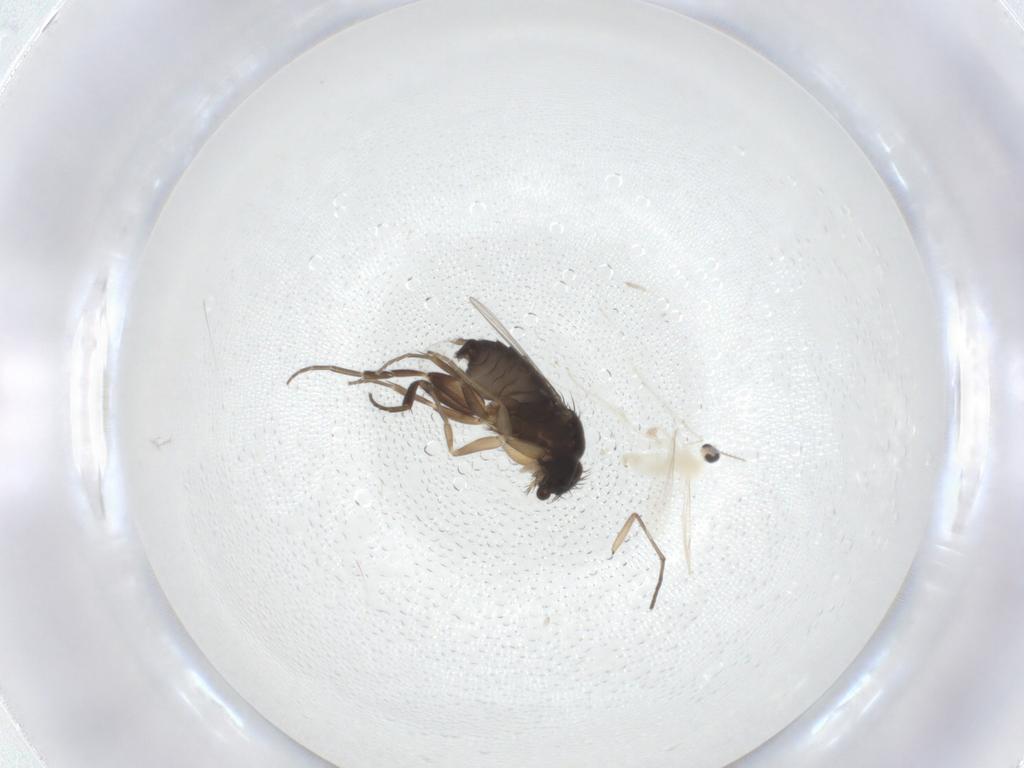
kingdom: Animalia
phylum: Arthropoda
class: Insecta
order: Diptera
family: Phoridae
